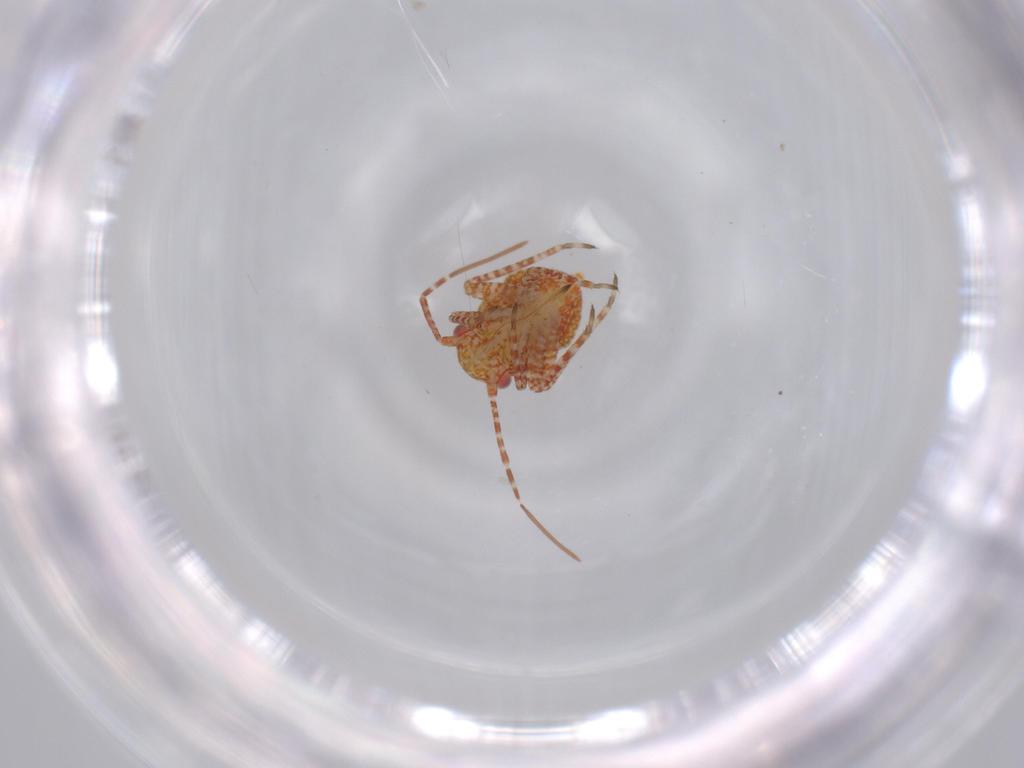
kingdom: Animalia
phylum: Arthropoda
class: Insecta
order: Hemiptera
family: Miridae
